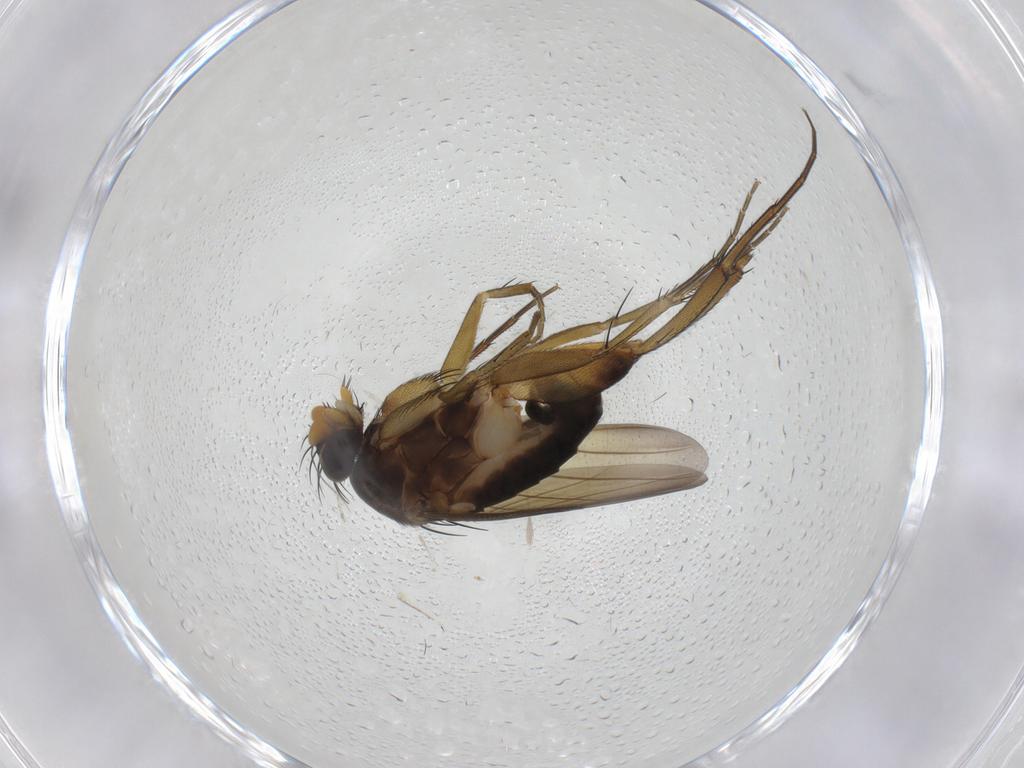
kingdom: Animalia
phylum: Arthropoda
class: Insecta
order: Diptera
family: Phoridae
